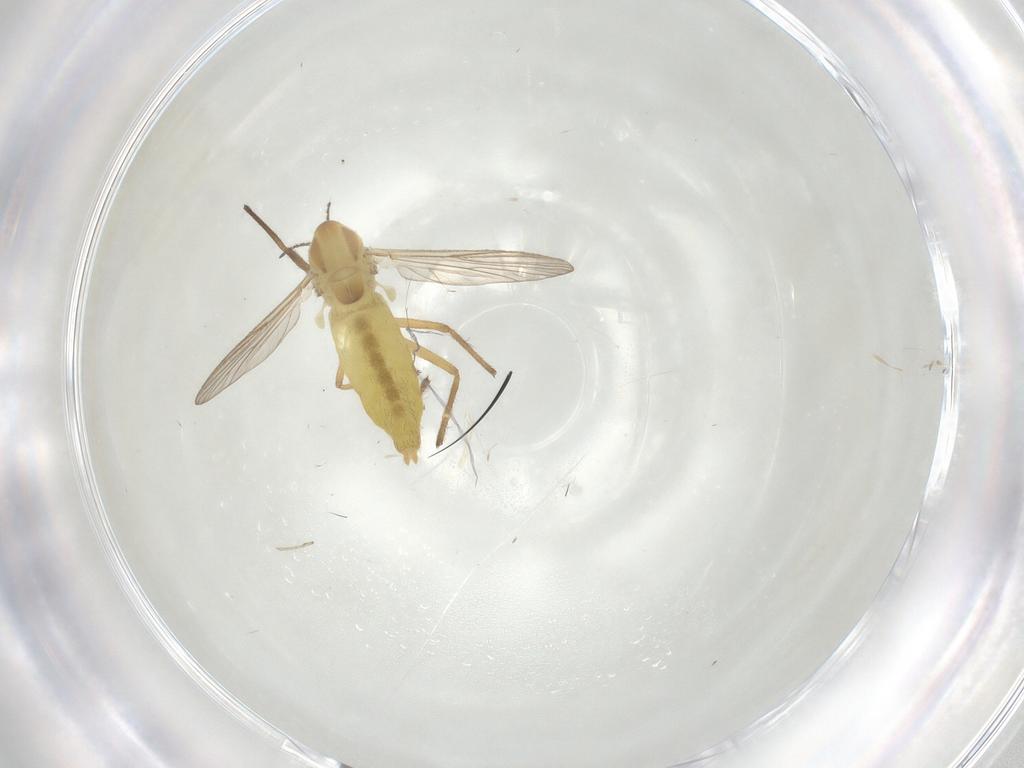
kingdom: Animalia
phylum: Arthropoda
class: Insecta
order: Diptera
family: Chironomidae
